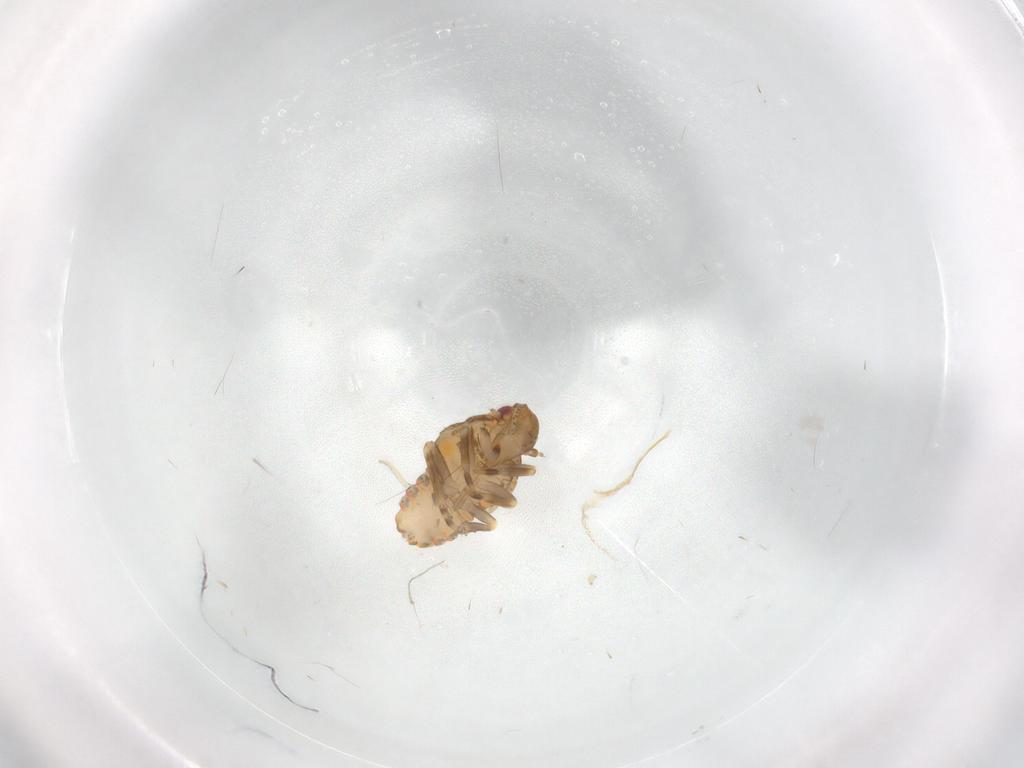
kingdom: Animalia
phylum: Arthropoda
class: Insecta
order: Hemiptera
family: Flatidae
